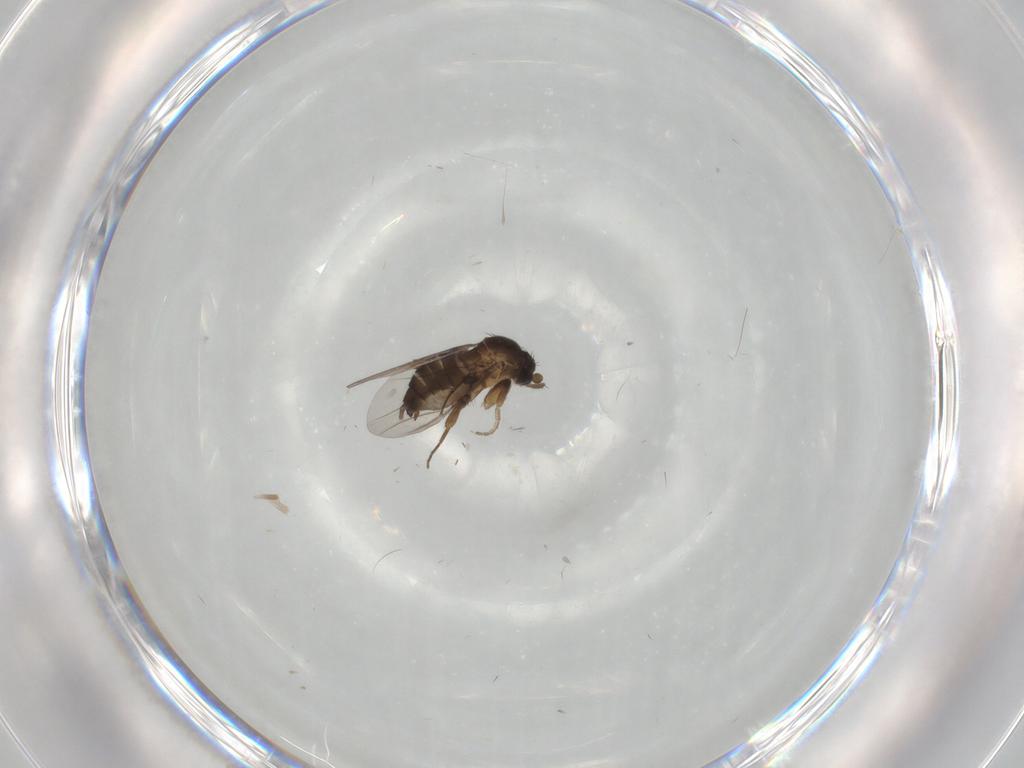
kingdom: Animalia
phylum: Arthropoda
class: Insecta
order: Diptera
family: Phoridae
